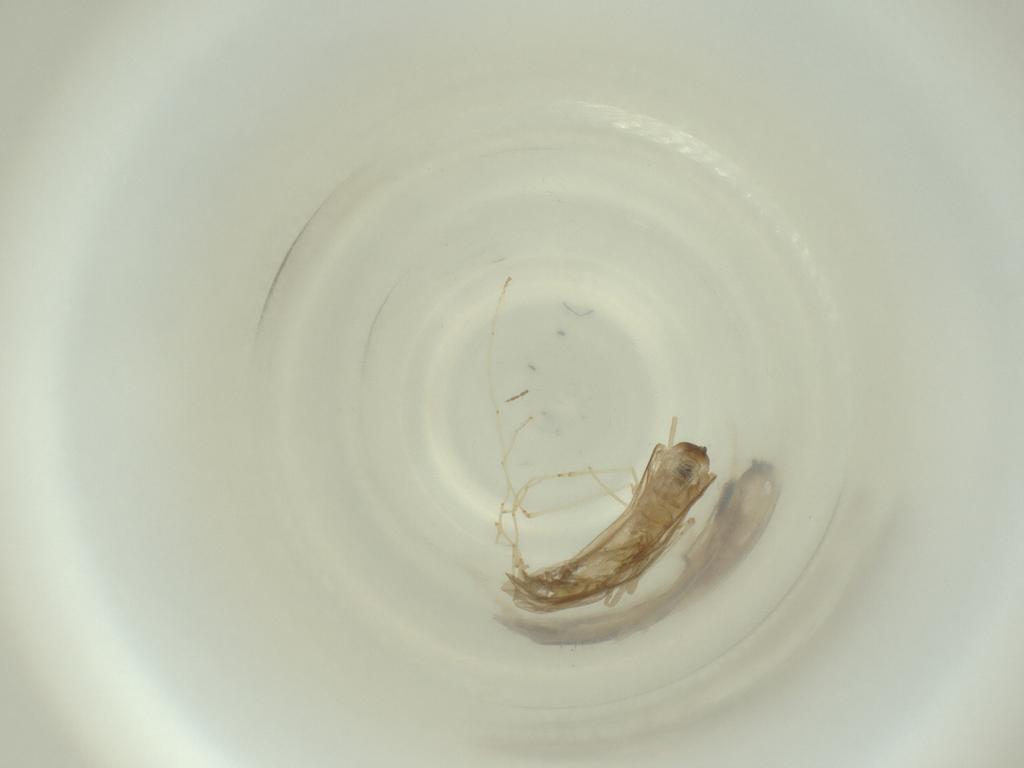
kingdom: Animalia
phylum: Arthropoda
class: Insecta
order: Diptera
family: Cecidomyiidae
